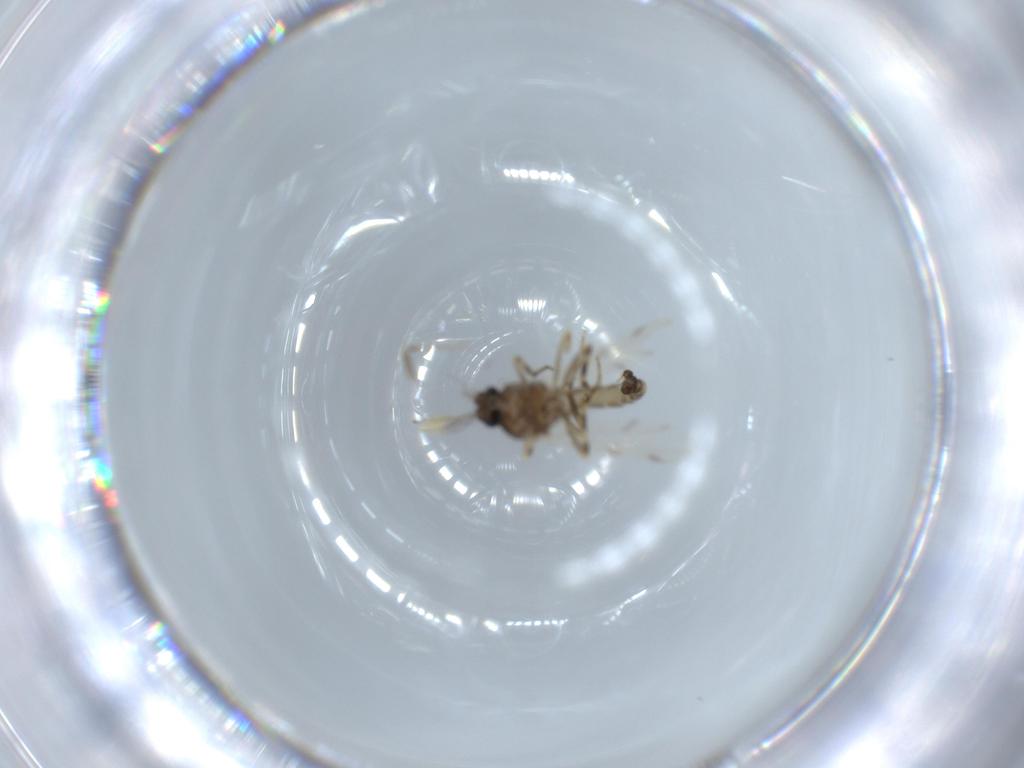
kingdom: Animalia
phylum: Arthropoda
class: Insecta
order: Diptera
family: Ceratopogonidae
